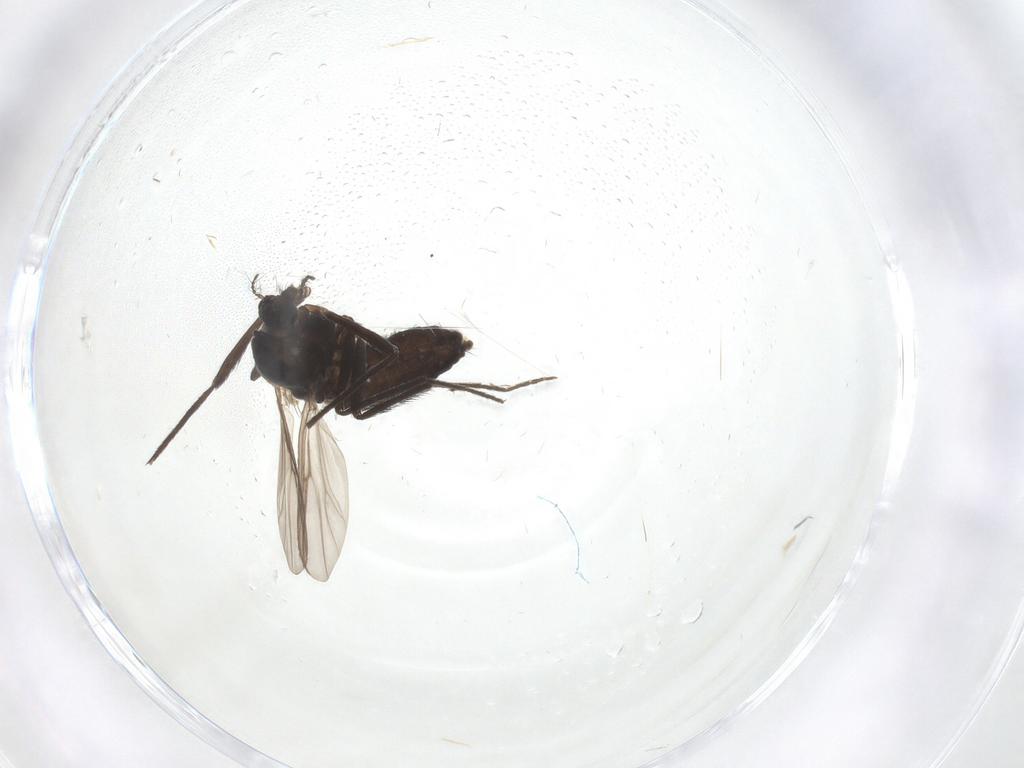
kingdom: Animalia
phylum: Arthropoda
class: Insecta
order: Diptera
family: Chironomidae
